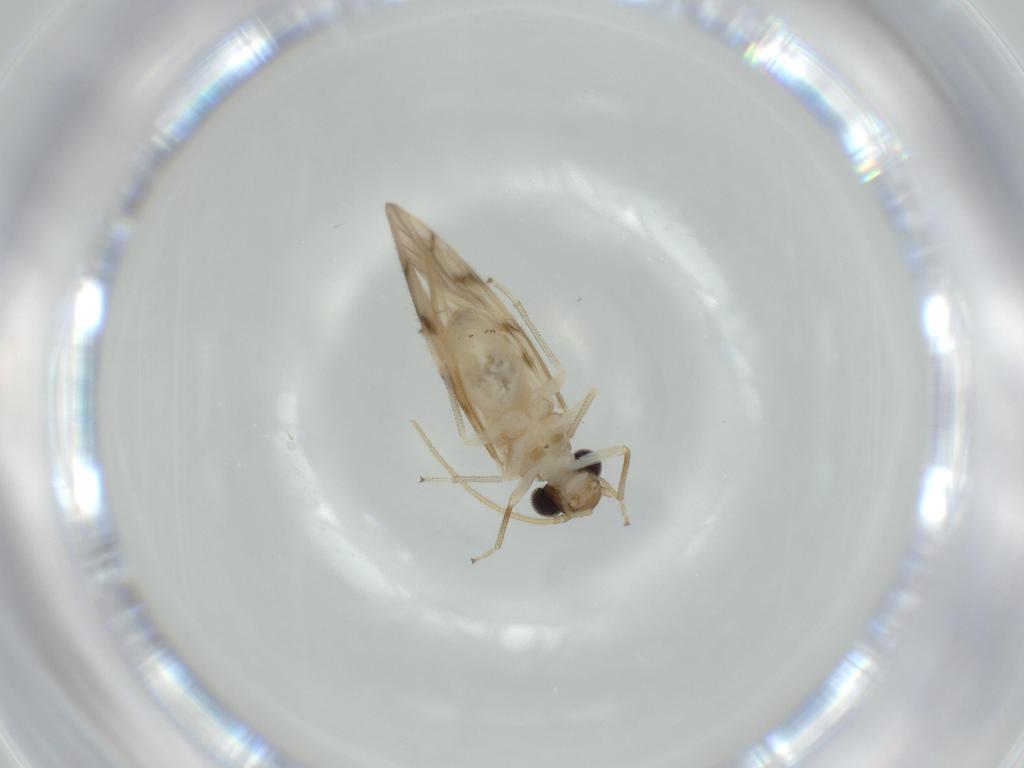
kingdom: Animalia
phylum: Arthropoda
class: Insecta
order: Psocodea
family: Caeciliusidae
